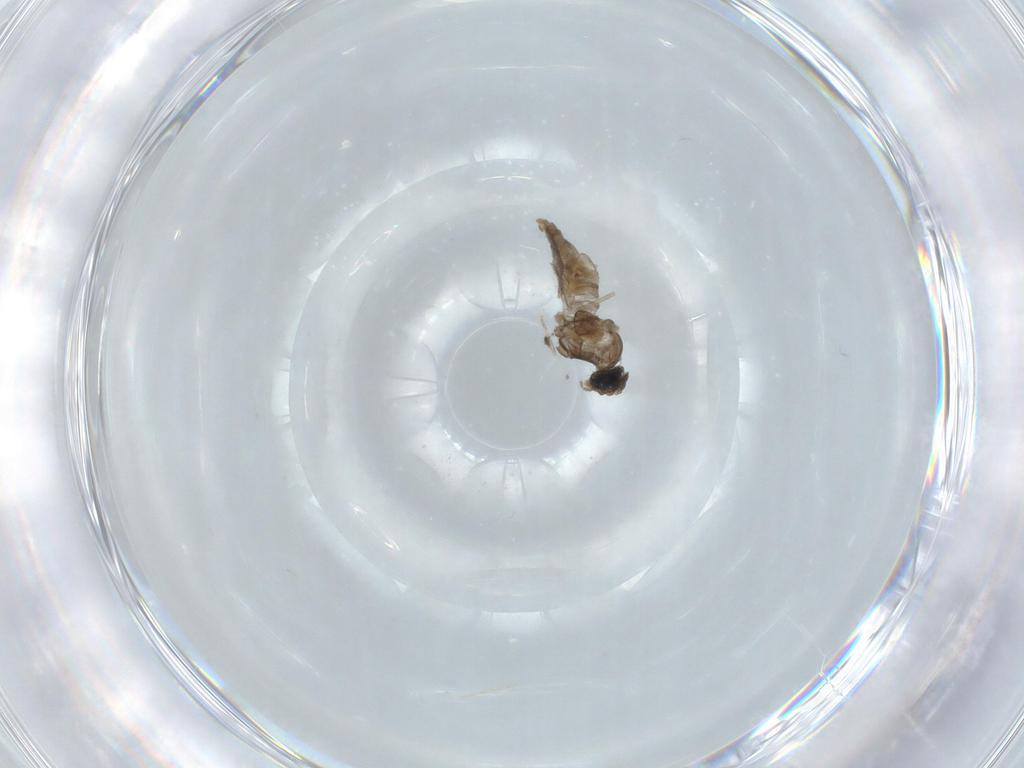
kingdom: Animalia
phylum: Arthropoda
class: Insecta
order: Diptera
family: Cecidomyiidae
